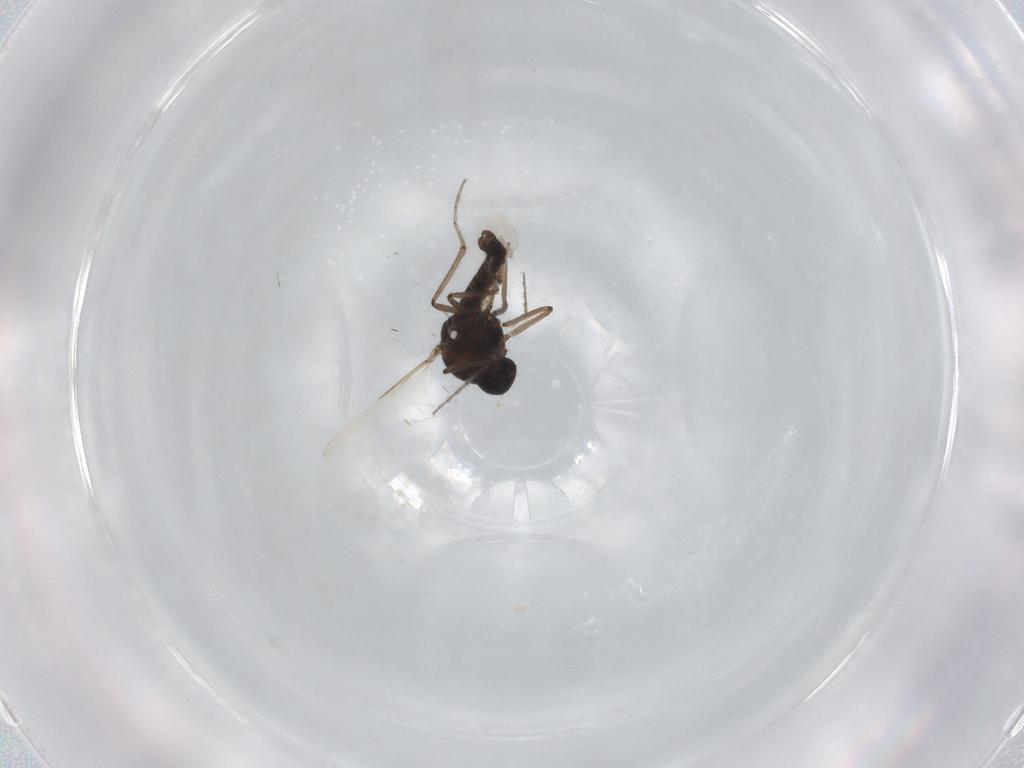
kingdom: Animalia
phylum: Arthropoda
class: Insecta
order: Diptera
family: Ceratopogonidae
